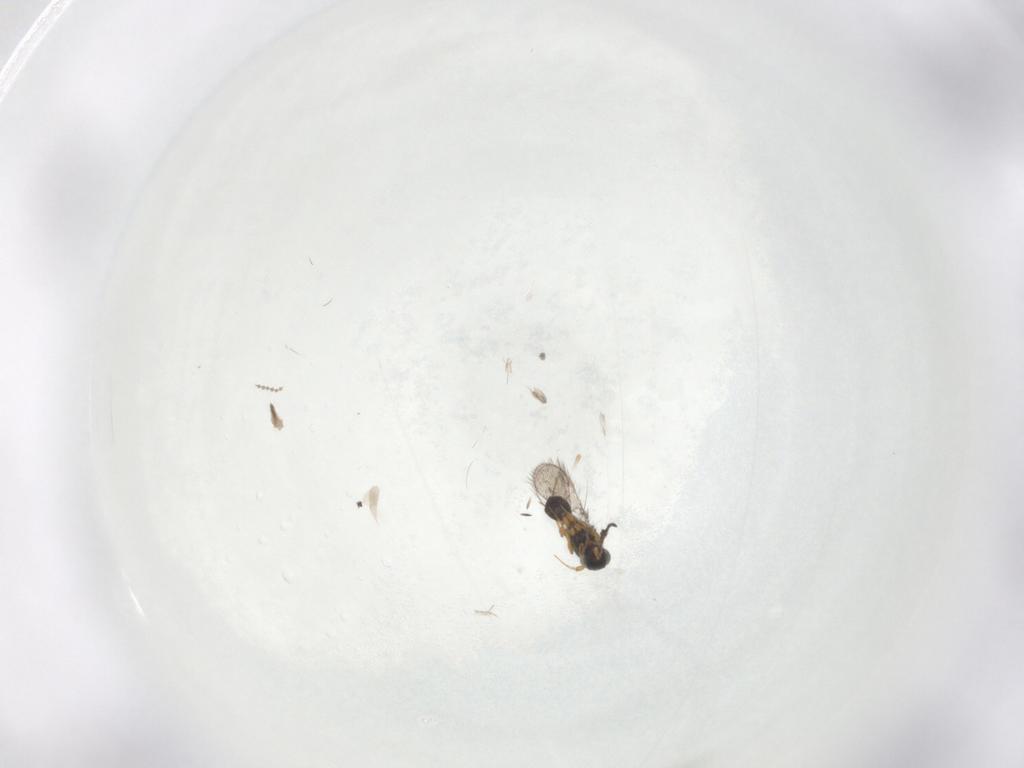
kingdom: Animalia
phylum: Arthropoda
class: Insecta
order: Hymenoptera
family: Platygastridae
